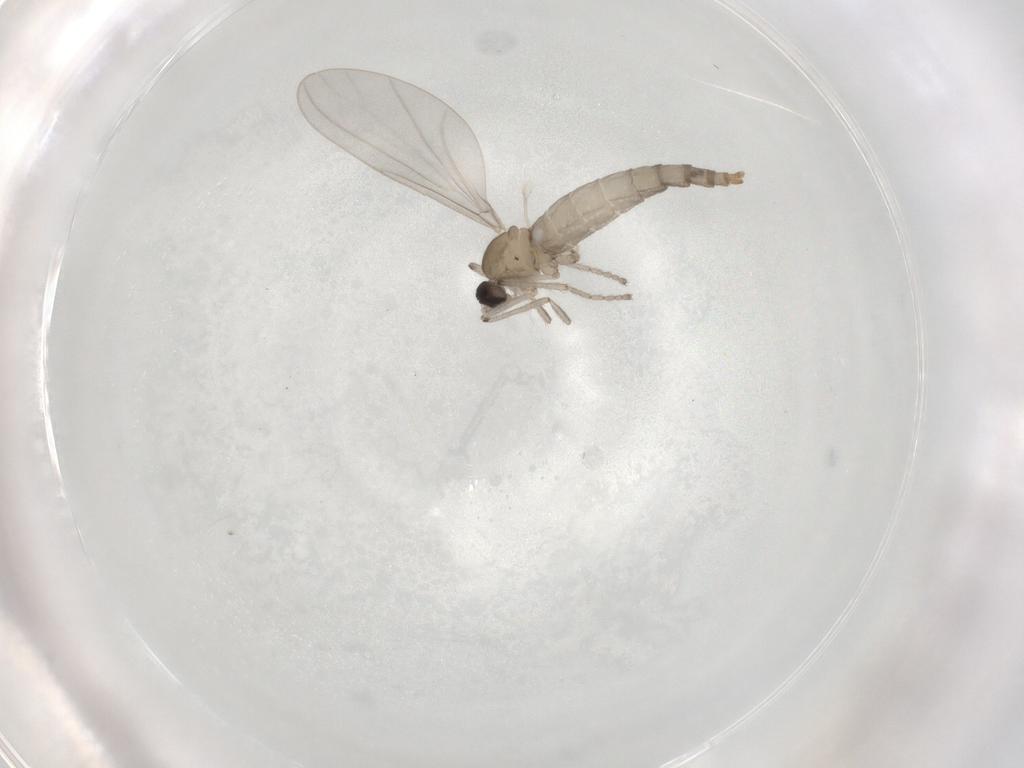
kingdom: Animalia
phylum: Arthropoda
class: Insecta
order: Diptera
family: Cecidomyiidae
